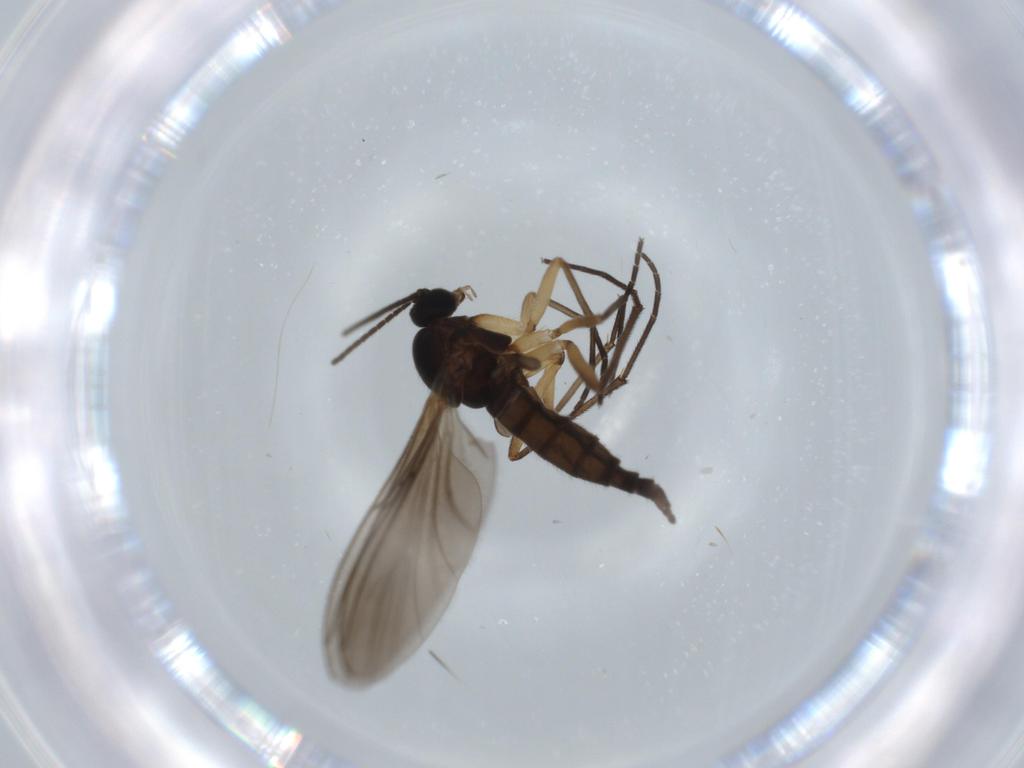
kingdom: Animalia
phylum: Arthropoda
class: Insecta
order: Diptera
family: Sciaridae
